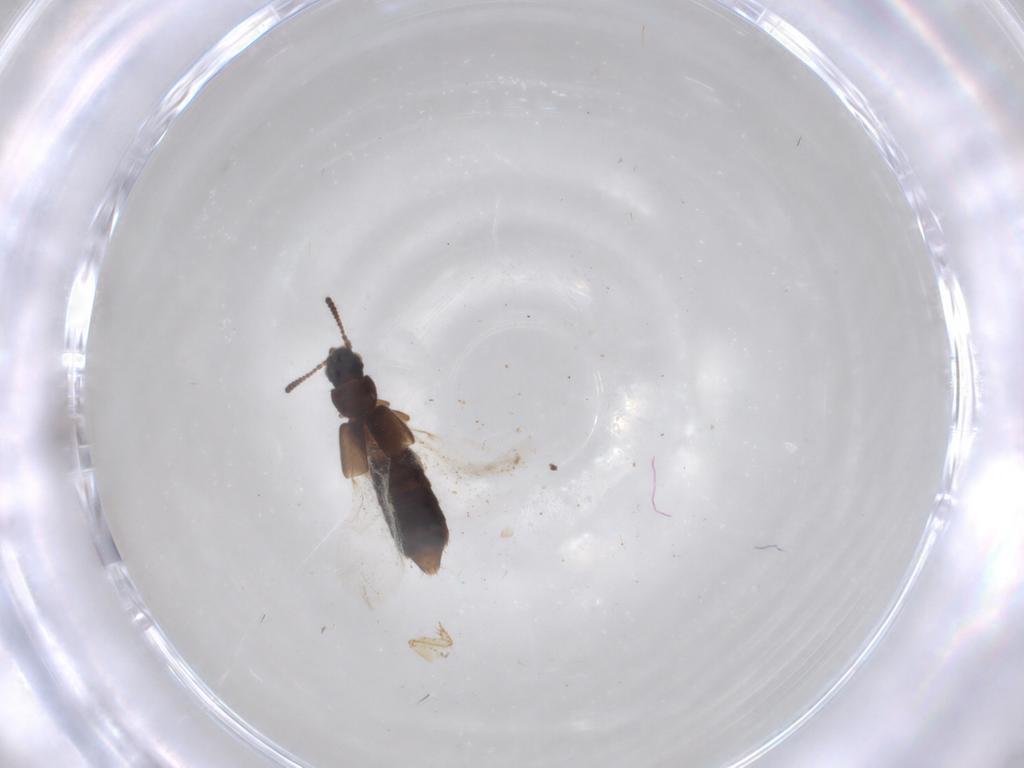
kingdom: Animalia
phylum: Arthropoda
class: Insecta
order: Coleoptera
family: Staphylinidae
